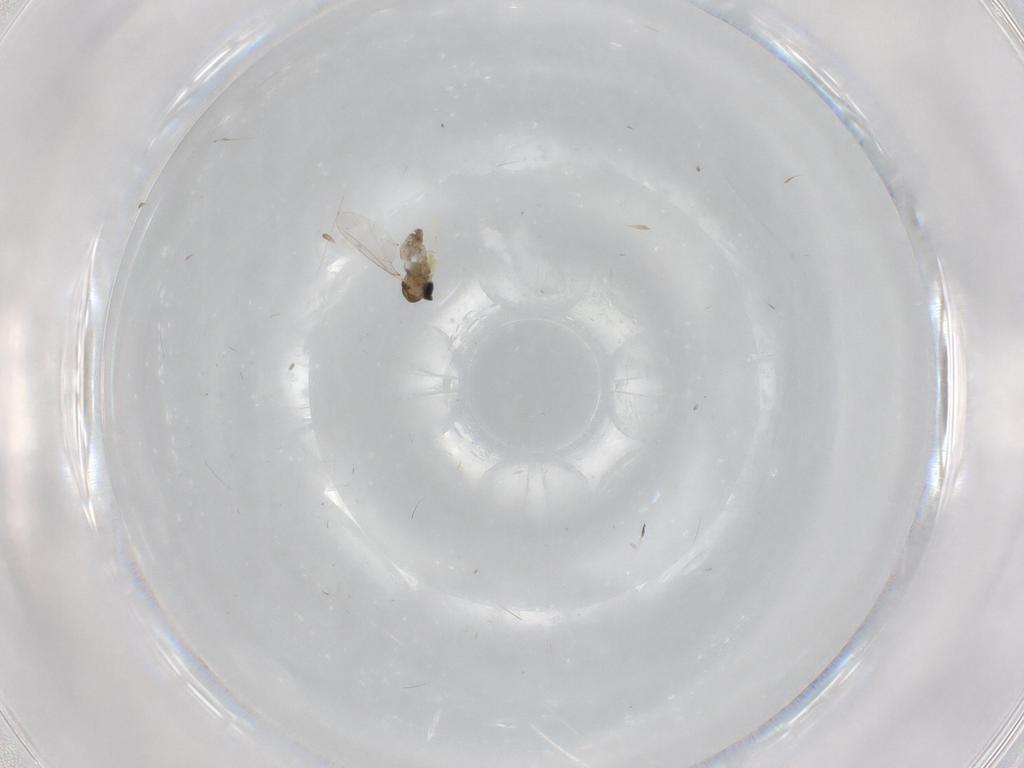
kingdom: Animalia
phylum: Arthropoda
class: Insecta
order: Diptera
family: Cecidomyiidae
